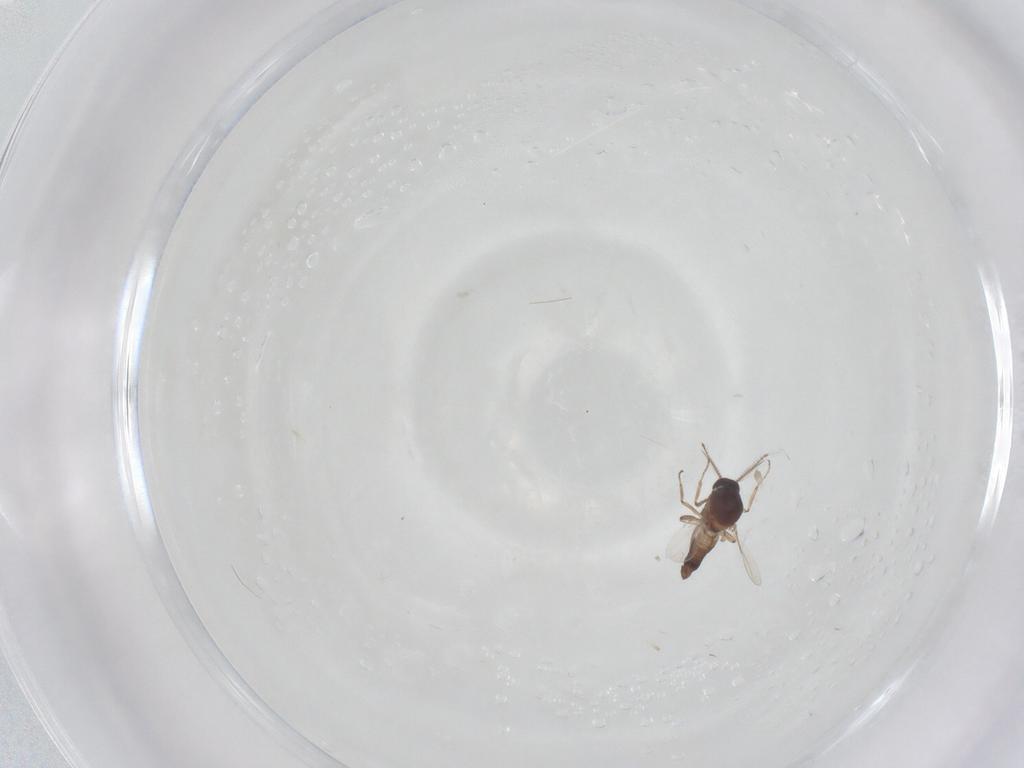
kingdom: Animalia
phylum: Arthropoda
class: Insecta
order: Diptera
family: Ceratopogonidae
